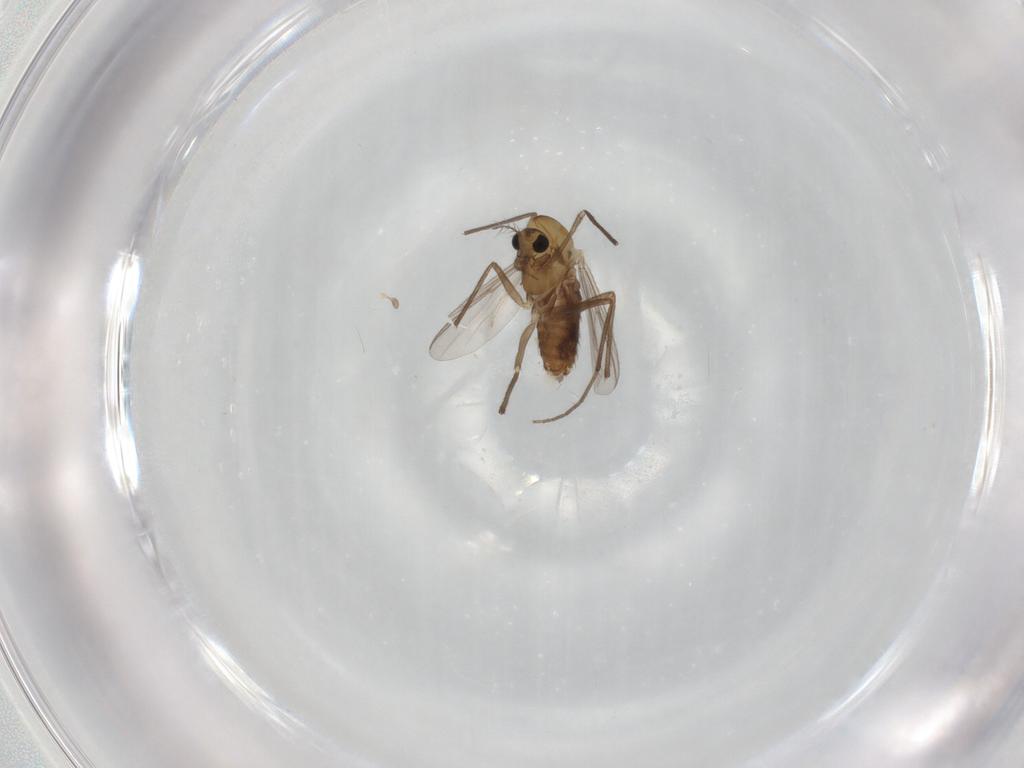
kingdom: Animalia
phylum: Arthropoda
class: Insecta
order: Diptera
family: Chironomidae
